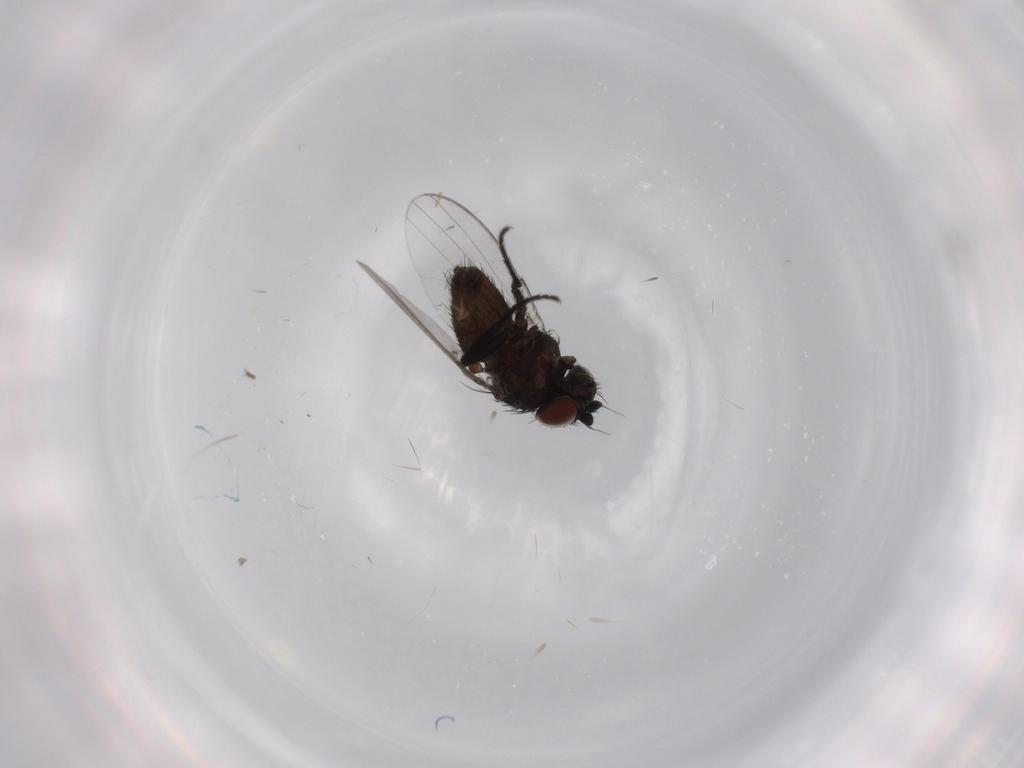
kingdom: Animalia
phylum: Arthropoda
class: Insecta
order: Diptera
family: Milichiidae
